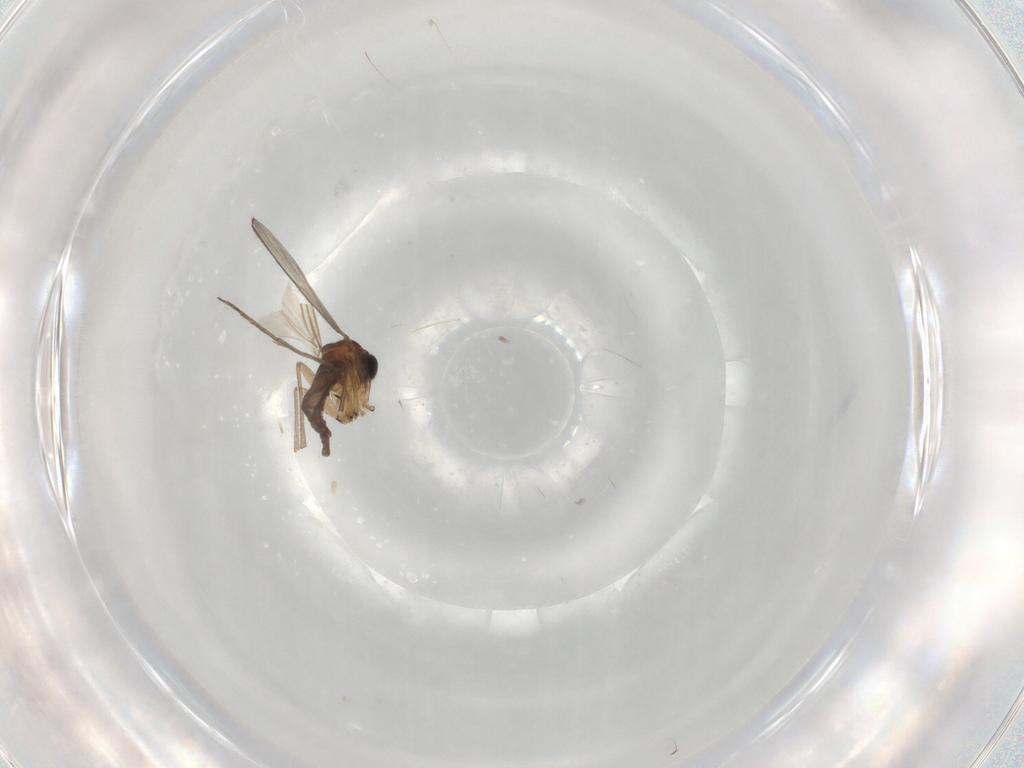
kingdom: Animalia
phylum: Arthropoda
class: Insecta
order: Diptera
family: Sciaridae
